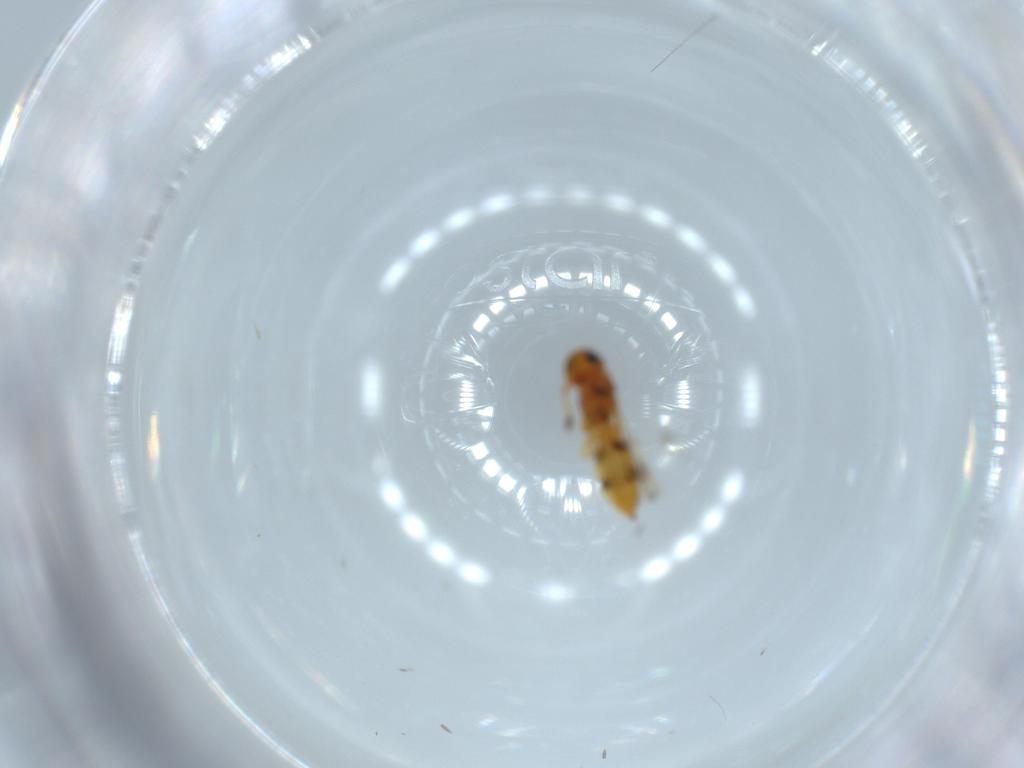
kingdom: Animalia
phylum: Arthropoda
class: Insecta
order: Hymenoptera
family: Scelionidae
